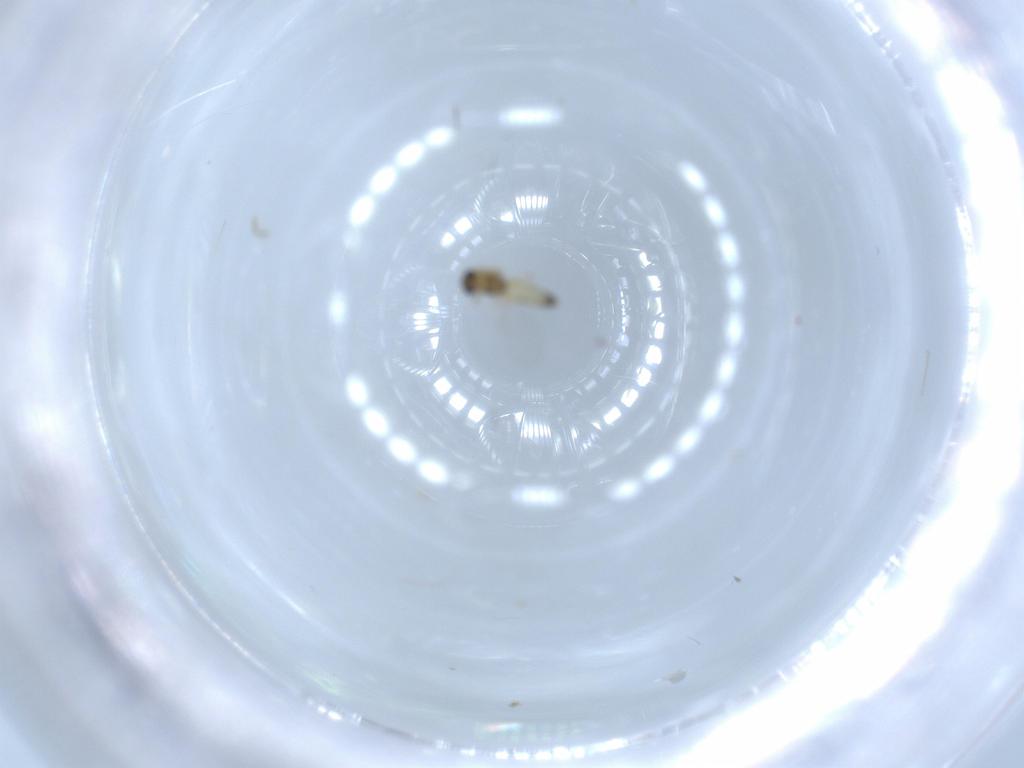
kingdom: Animalia
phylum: Arthropoda
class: Insecta
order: Diptera
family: Chironomidae
